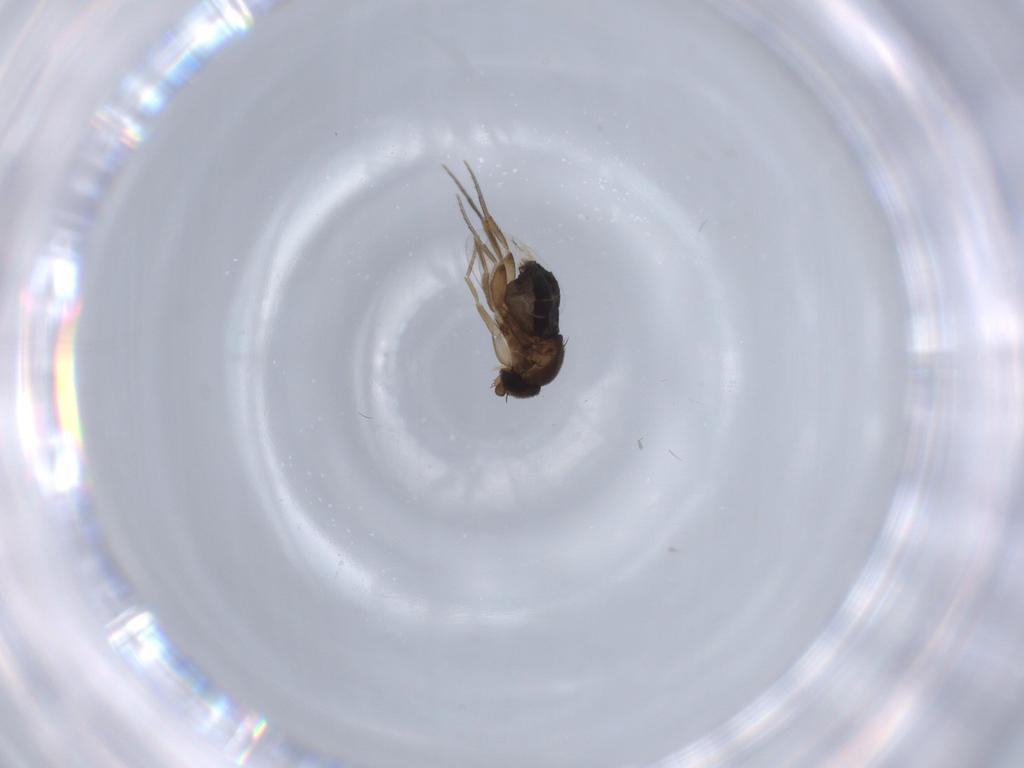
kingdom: Animalia
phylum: Arthropoda
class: Insecta
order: Diptera
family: Phoridae
